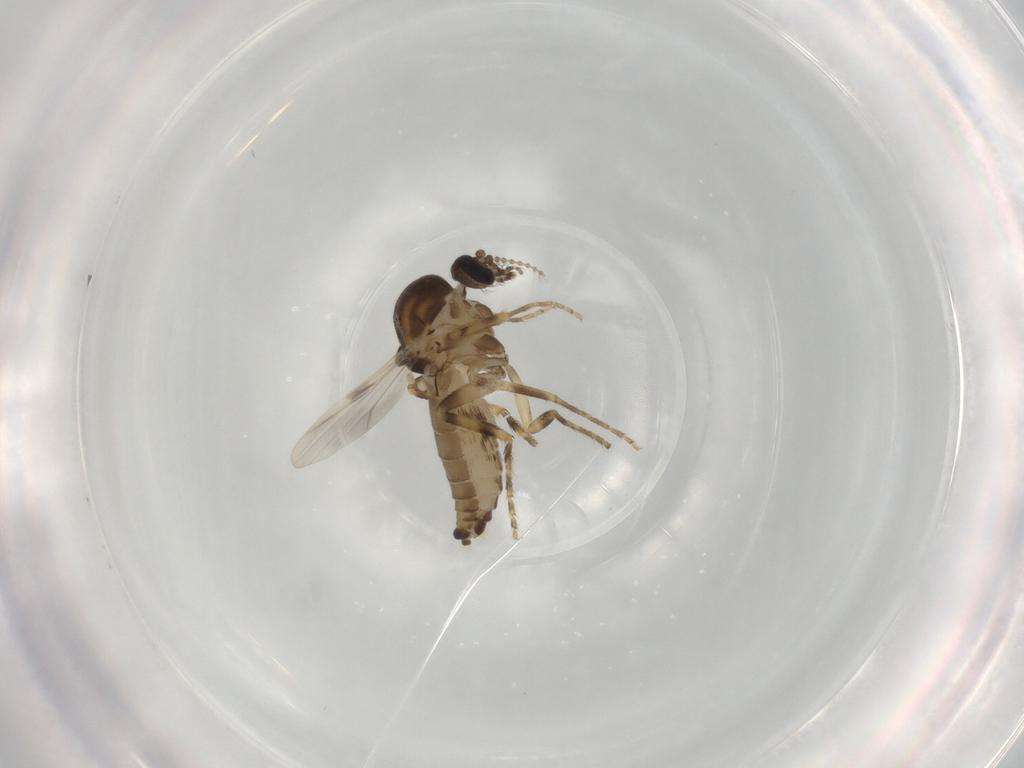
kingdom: Animalia
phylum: Arthropoda
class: Insecta
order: Diptera
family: Ceratopogonidae
